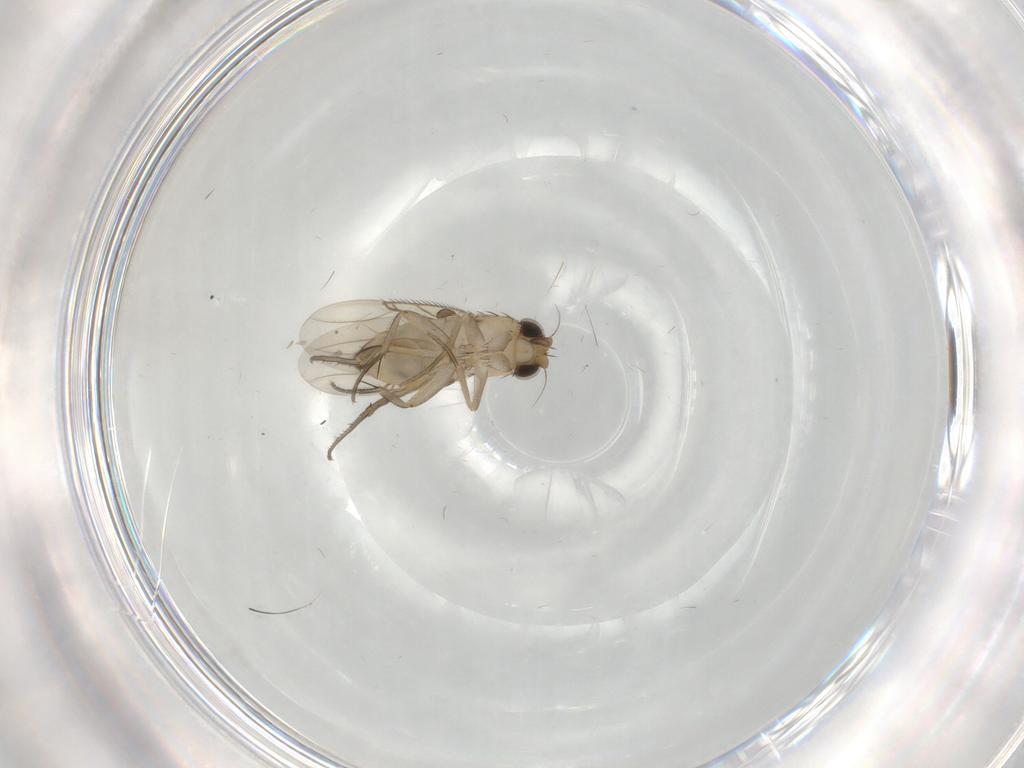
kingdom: Animalia
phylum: Arthropoda
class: Insecta
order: Diptera
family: Phoridae
